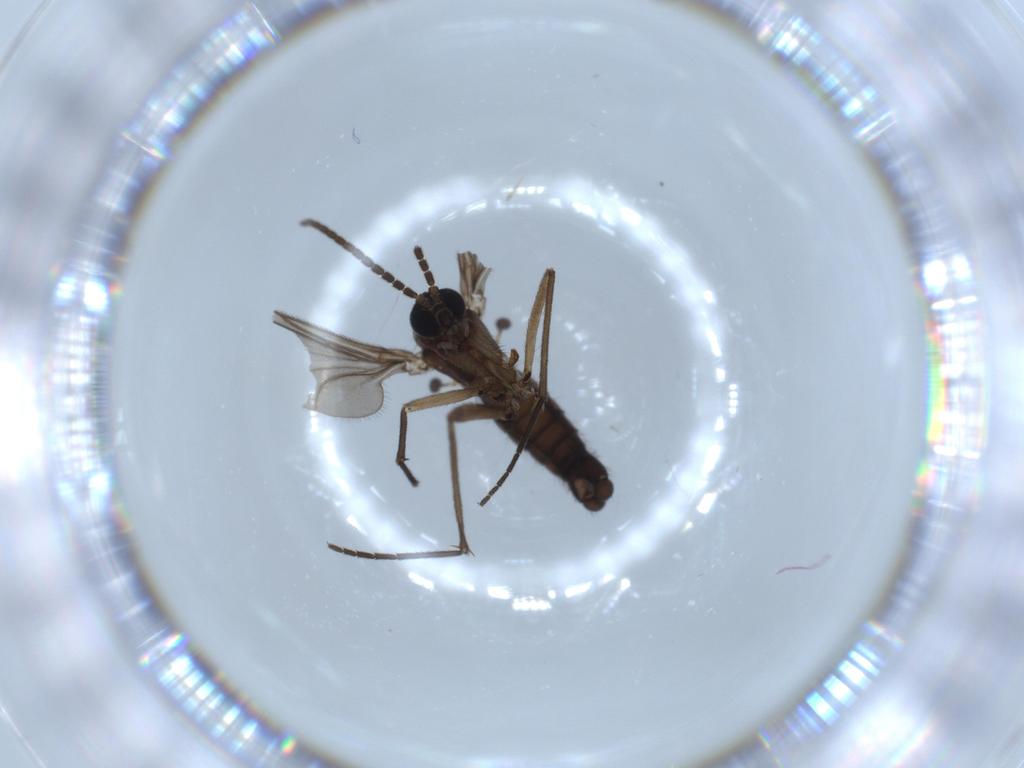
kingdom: Animalia
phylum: Arthropoda
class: Insecta
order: Diptera
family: Sciaridae
